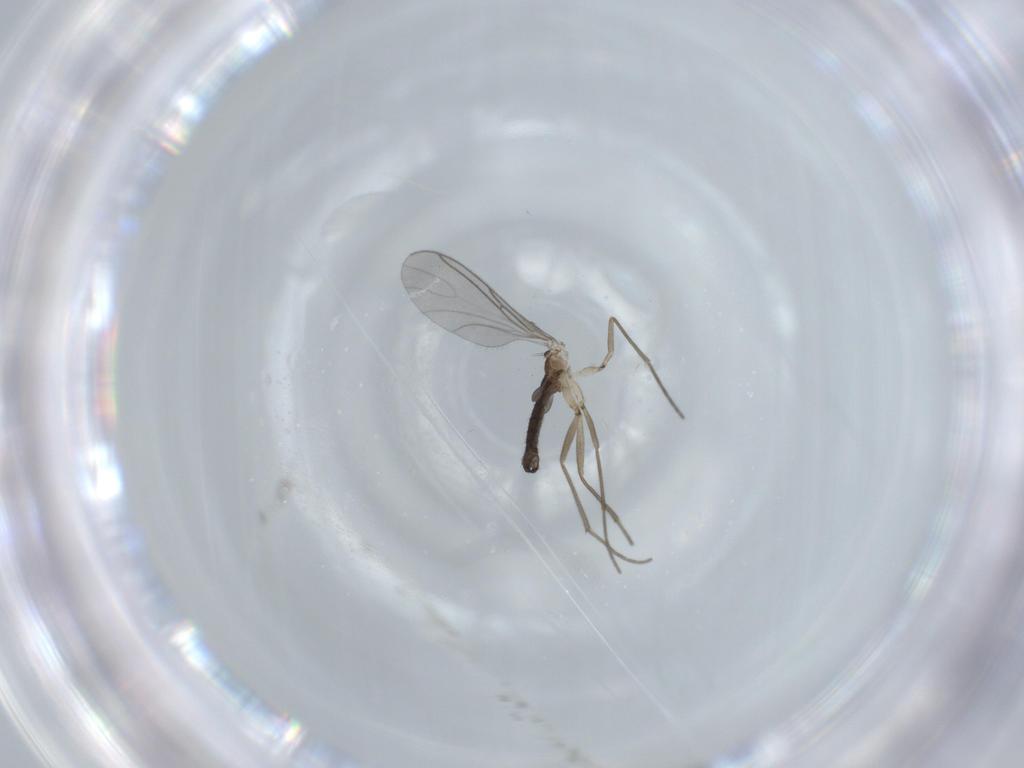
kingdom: Animalia
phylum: Arthropoda
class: Insecta
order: Diptera
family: Sciaridae
